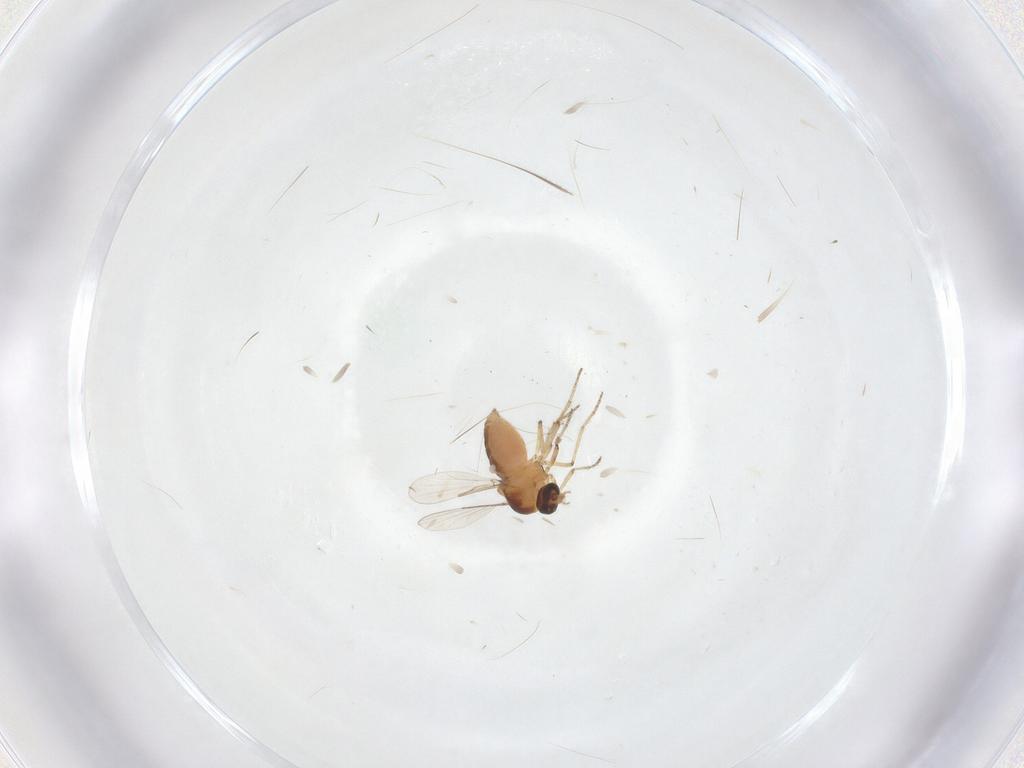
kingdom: Animalia
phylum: Arthropoda
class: Insecta
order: Diptera
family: Ceratopogonidae
